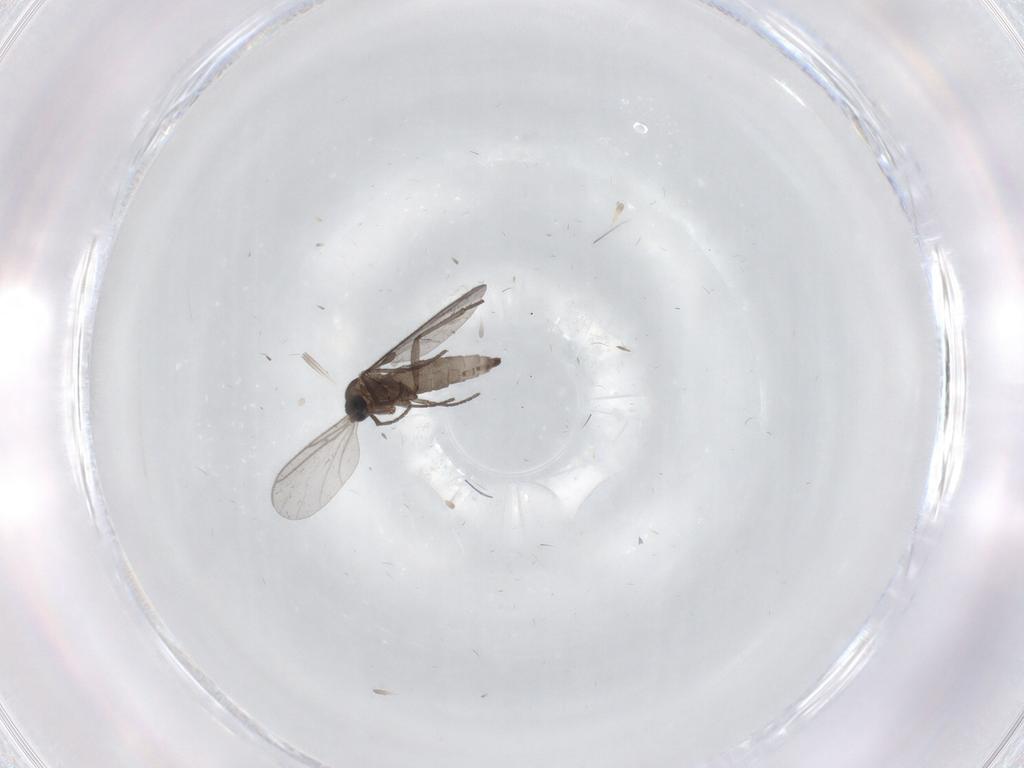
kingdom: Animalia
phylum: Arthropoda
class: Insecta
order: Diptera
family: Sciaridae
